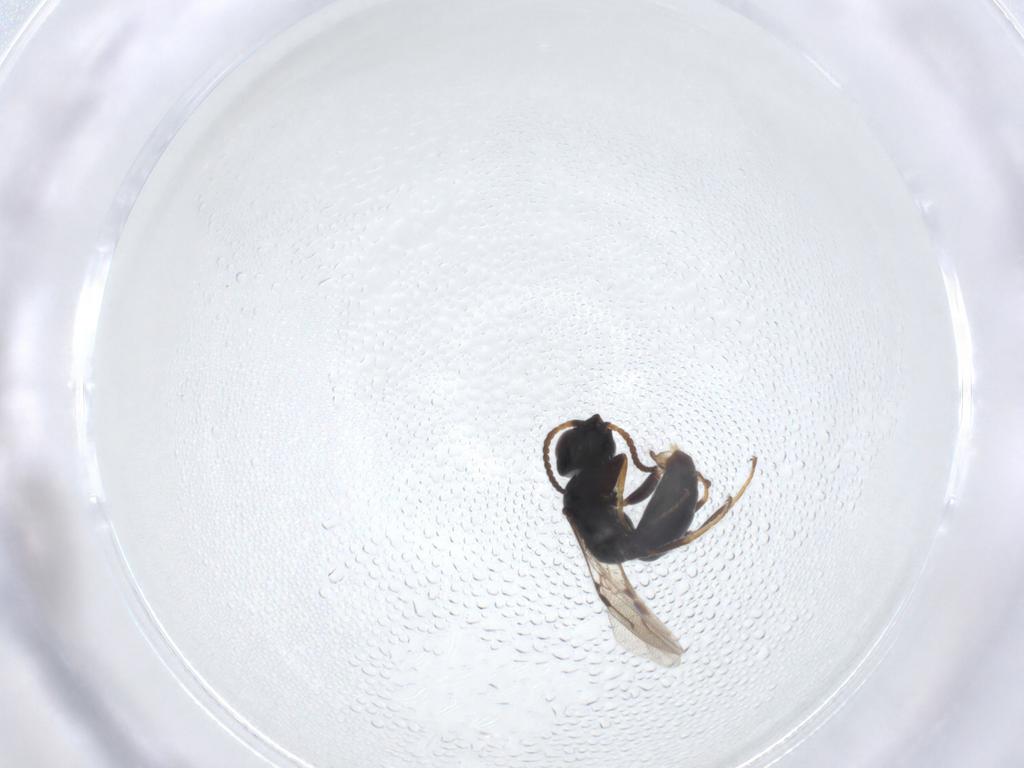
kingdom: Animalia
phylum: Arthropoda
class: Insecta
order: Hymenoptera
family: Bethylidae
